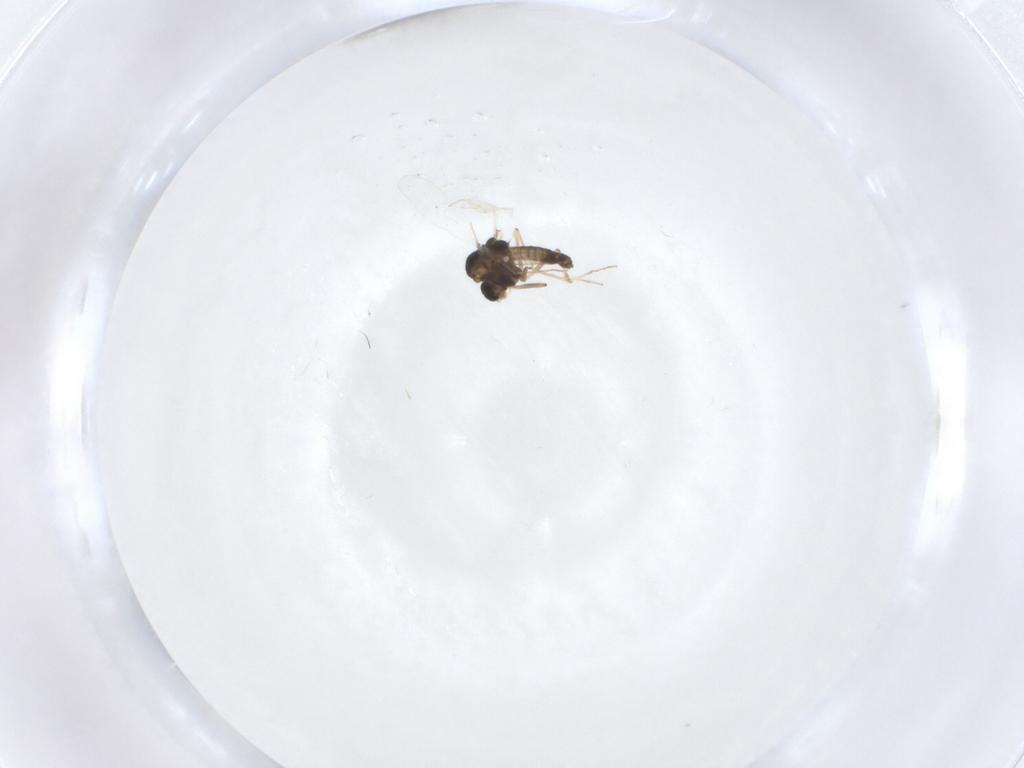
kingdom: Animalia
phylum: Arthropoda
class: Insecta
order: Diptera
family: Chironomidae
